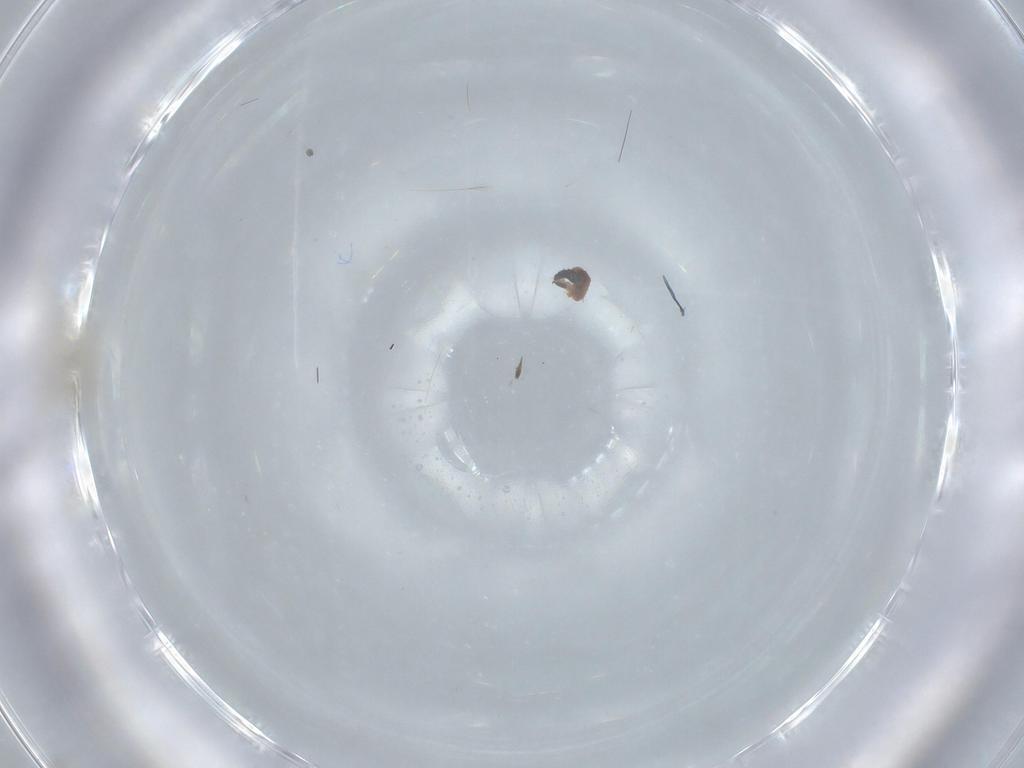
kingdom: Animalia
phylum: Arthropoda
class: Insecta
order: Diptera
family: Sciaridae
